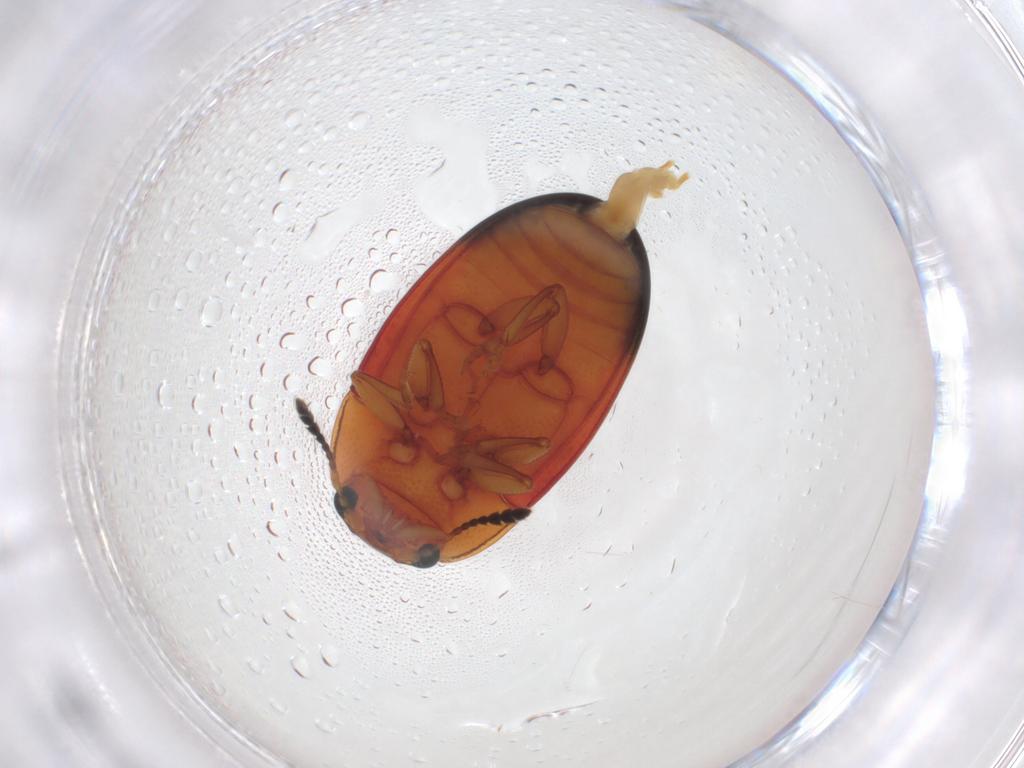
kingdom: Animalia
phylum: Arthropoda
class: Insecta
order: Coleoptera
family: Erotylidae
